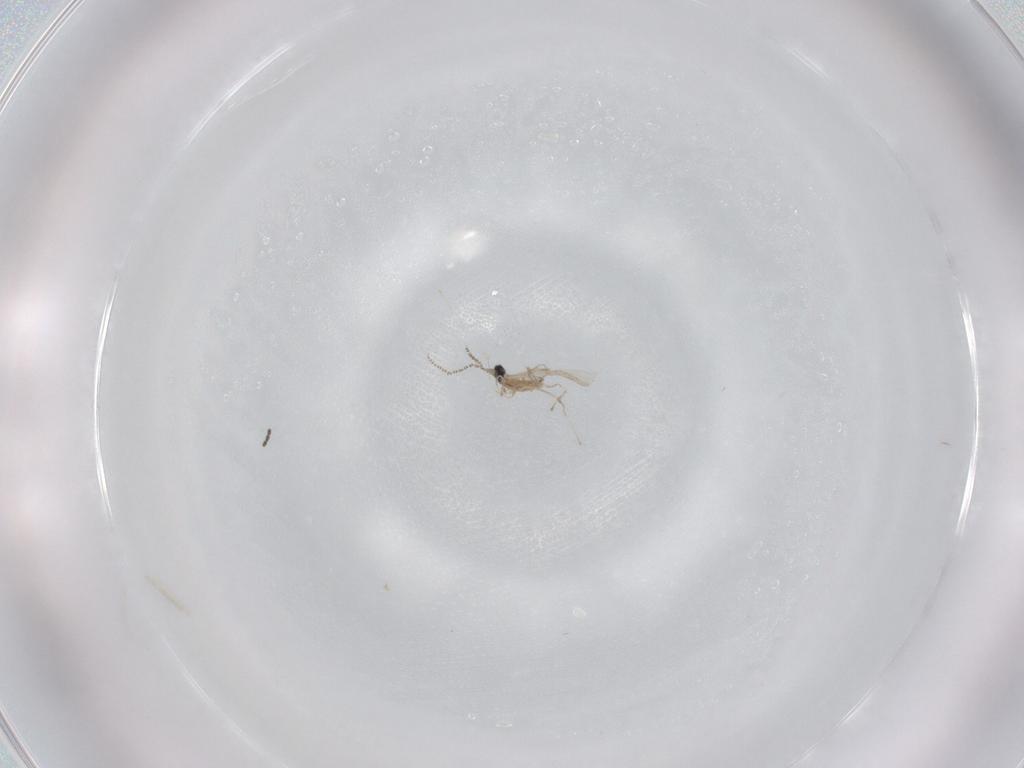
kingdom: Animalia
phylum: Arthropoda
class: Insecta
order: Diptera
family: Cecidomyiidae
